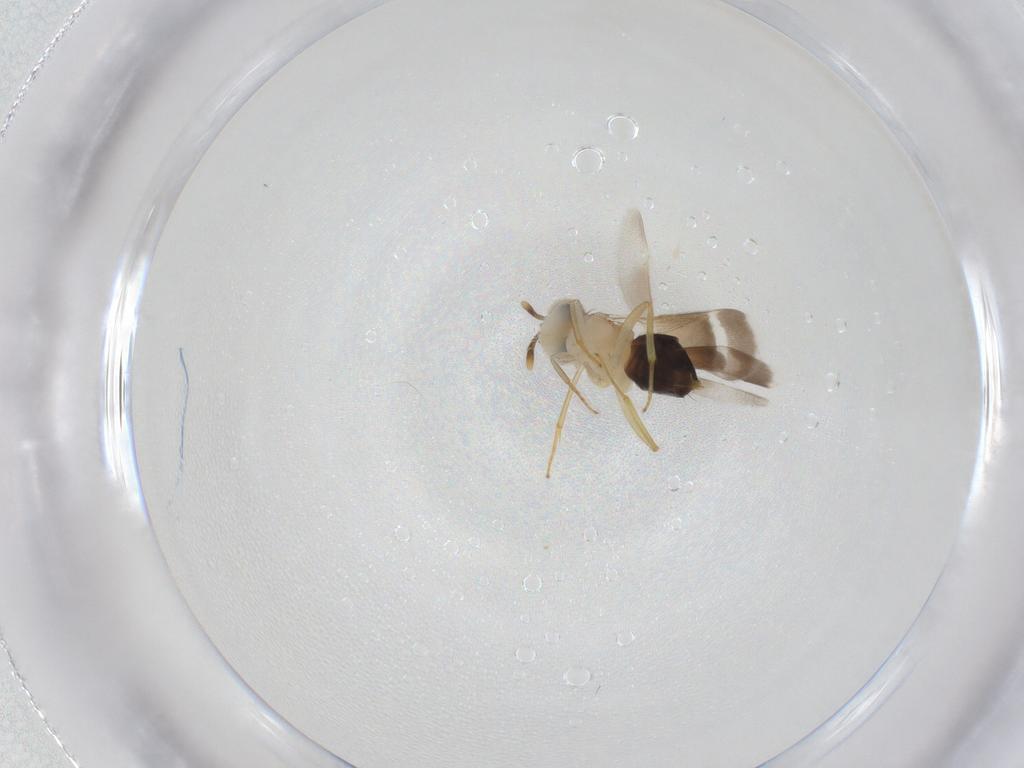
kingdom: Animalia
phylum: Arthropoda
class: Insecta
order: Hymenoptera
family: Aphelinidae
